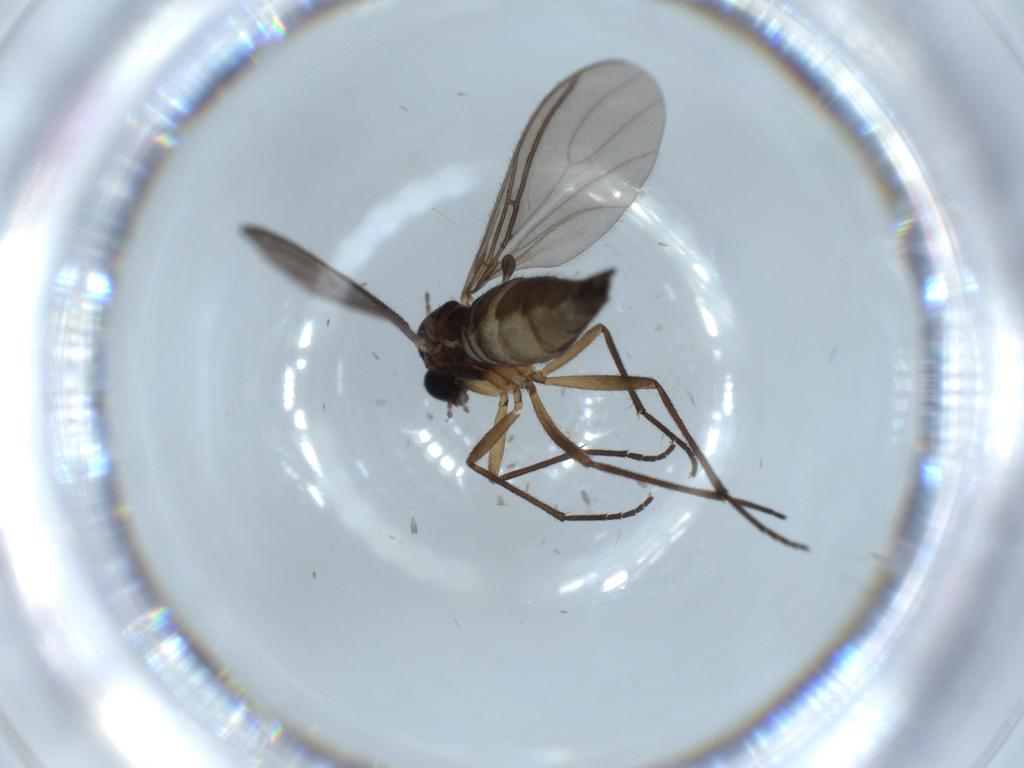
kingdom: Animalia
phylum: Arthropoda
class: Insecta
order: Diptera
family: Sciaridae
